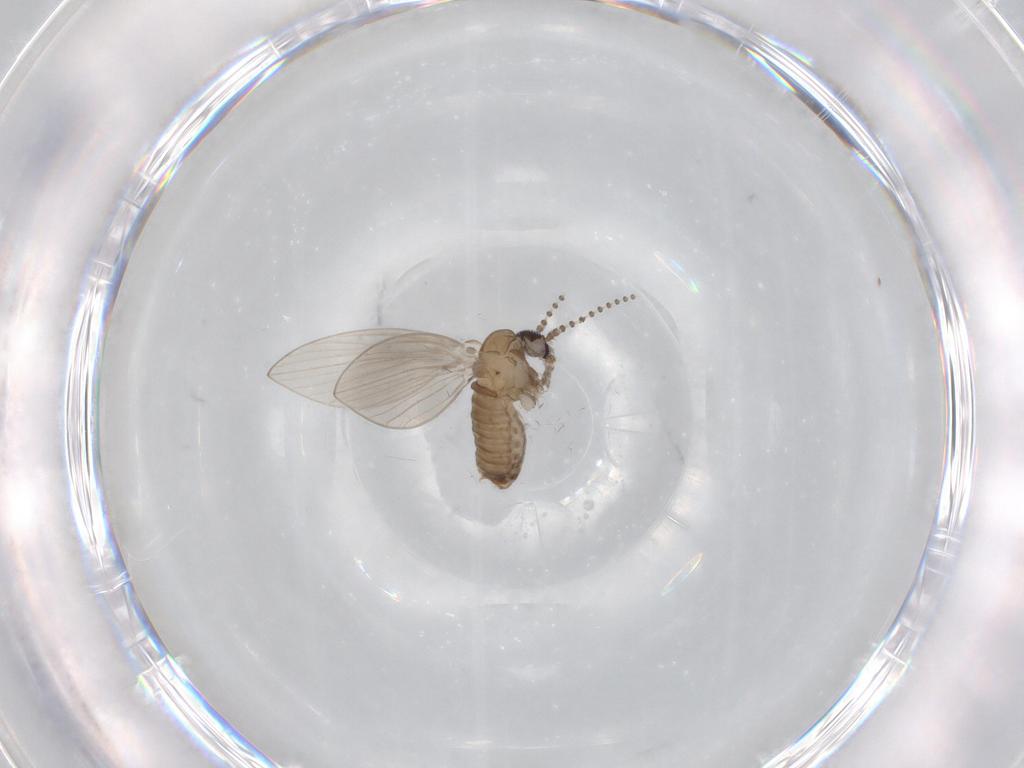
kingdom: Animalia
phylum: Arthropoda
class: Insecta
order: Diptera
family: Psychodidae
